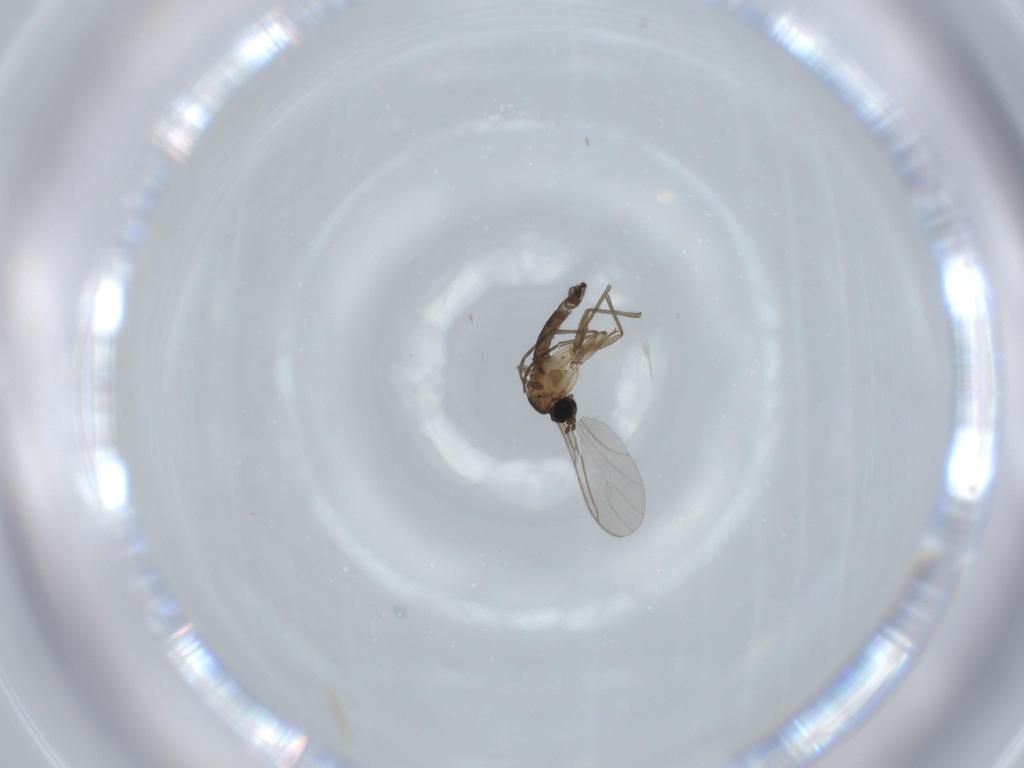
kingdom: Animalia
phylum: Arthropoda
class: Insecta
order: Diptera
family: Sciaridae
